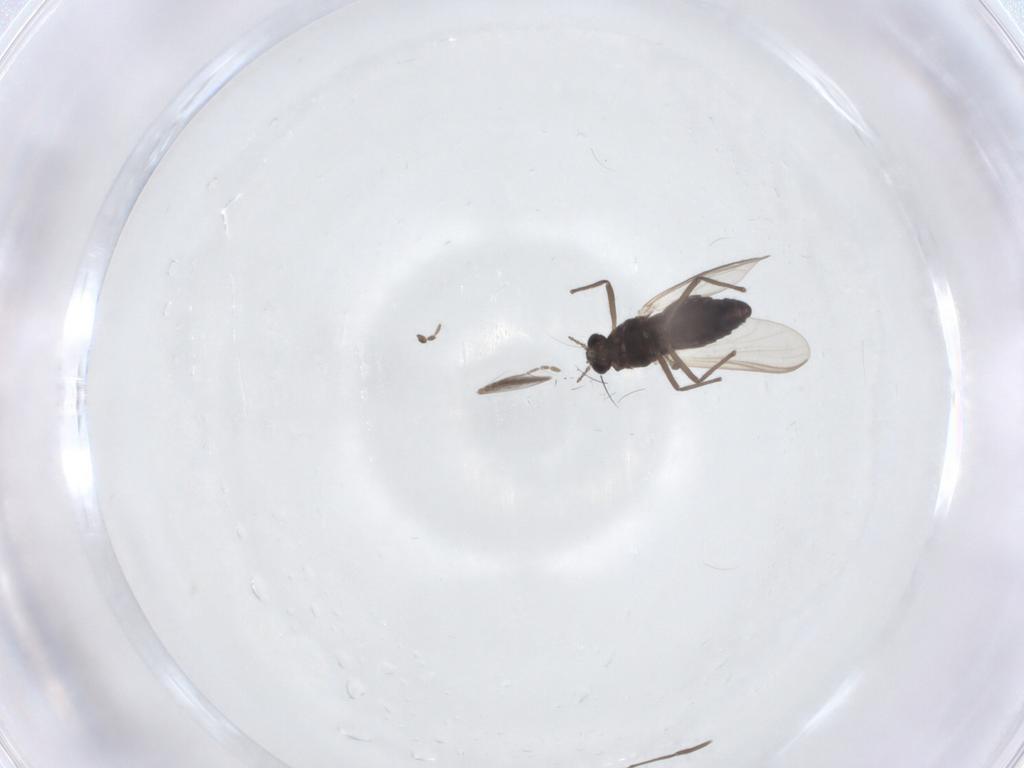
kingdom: Animalia
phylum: Arthropoda
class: Insecta
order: Diptera
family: Sciaridae
